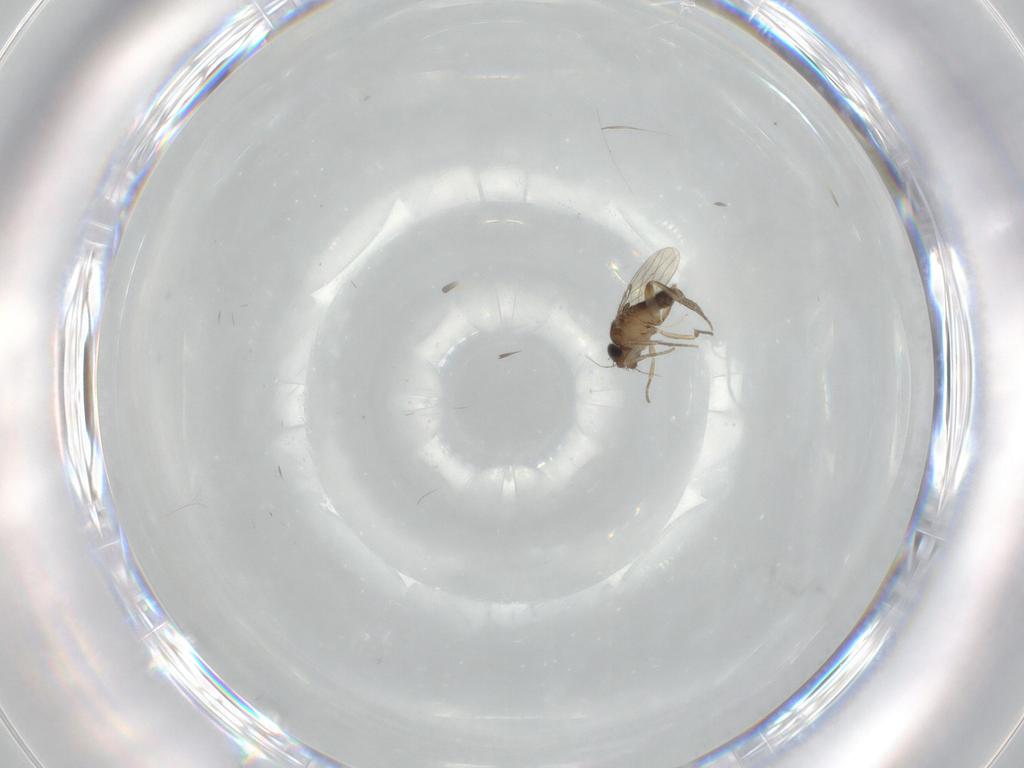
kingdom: Animalia
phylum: Arthropoda
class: Insecta
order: Diptera
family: Phoridae
